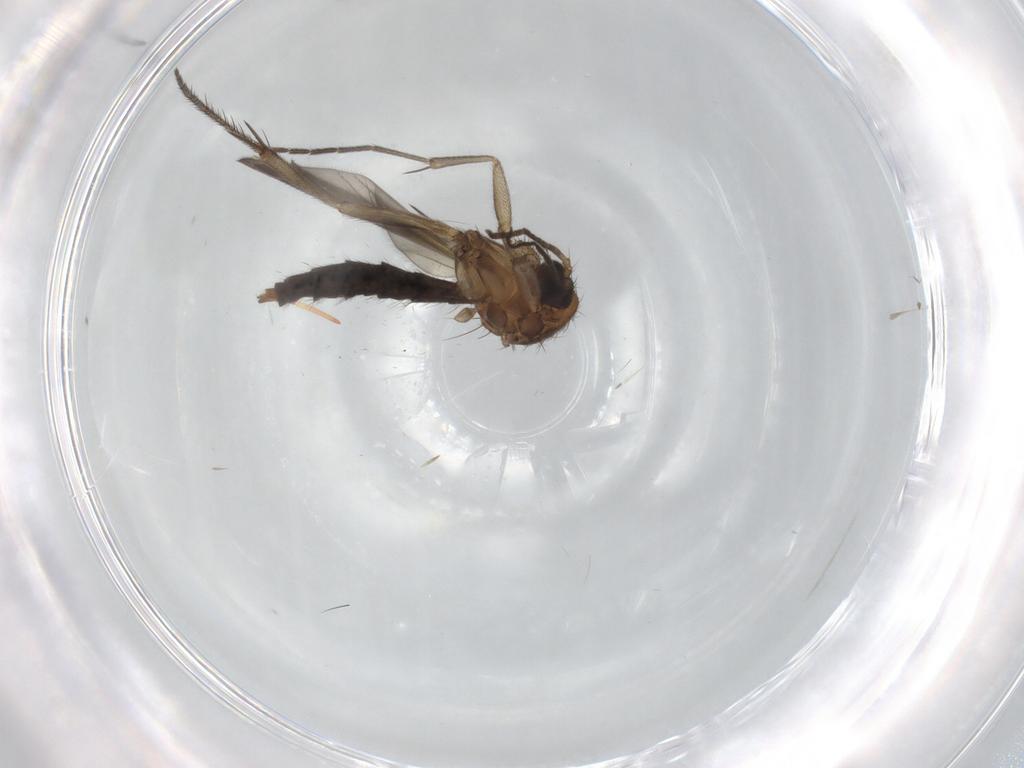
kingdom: Animalia
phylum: Arthropoda
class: Insecta
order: Diptera
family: Mycetophilidae
